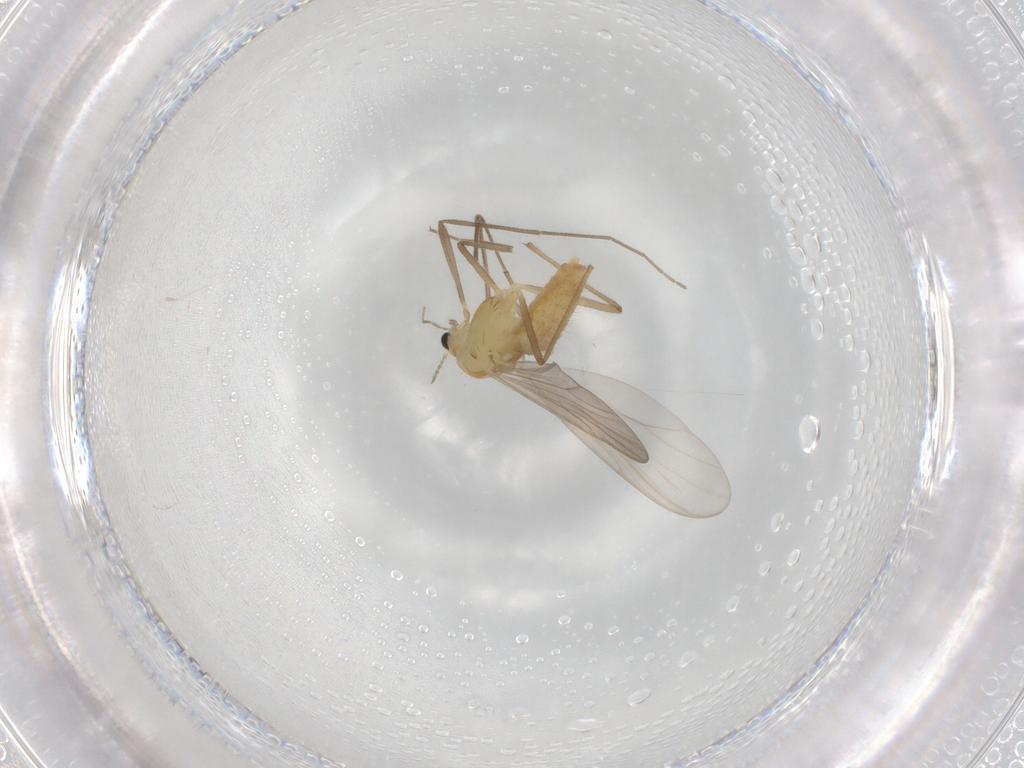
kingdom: Animalia
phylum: Arthropoda
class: Insecta
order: Diptera
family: Chironomidae
